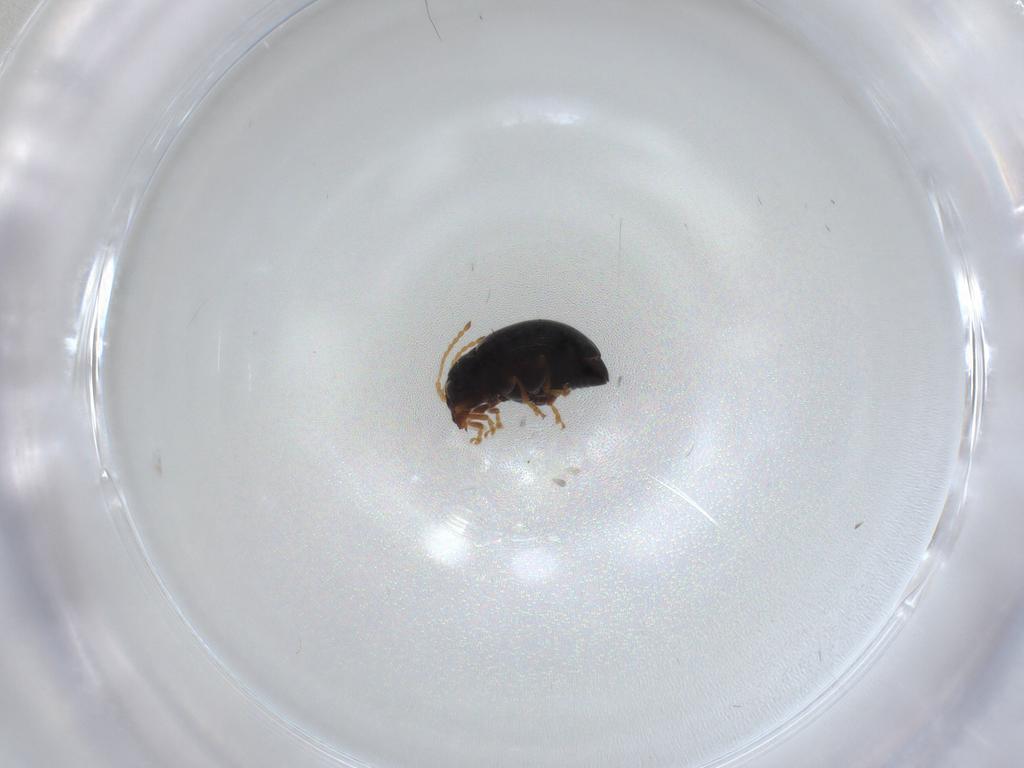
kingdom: Animalia
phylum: Arthropoda
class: Insecta
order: Coleoptera
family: Chrysomelidae
